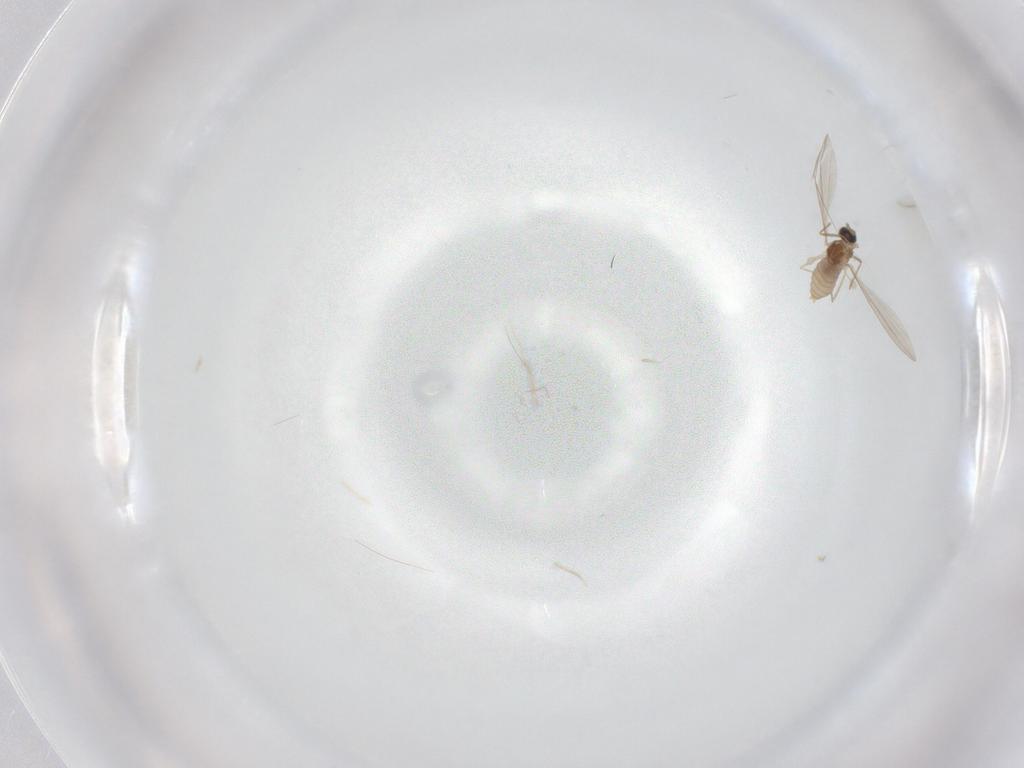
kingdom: Animalia
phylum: Arthropoda
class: Insecta
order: Diptera
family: Cecidomyiidae
